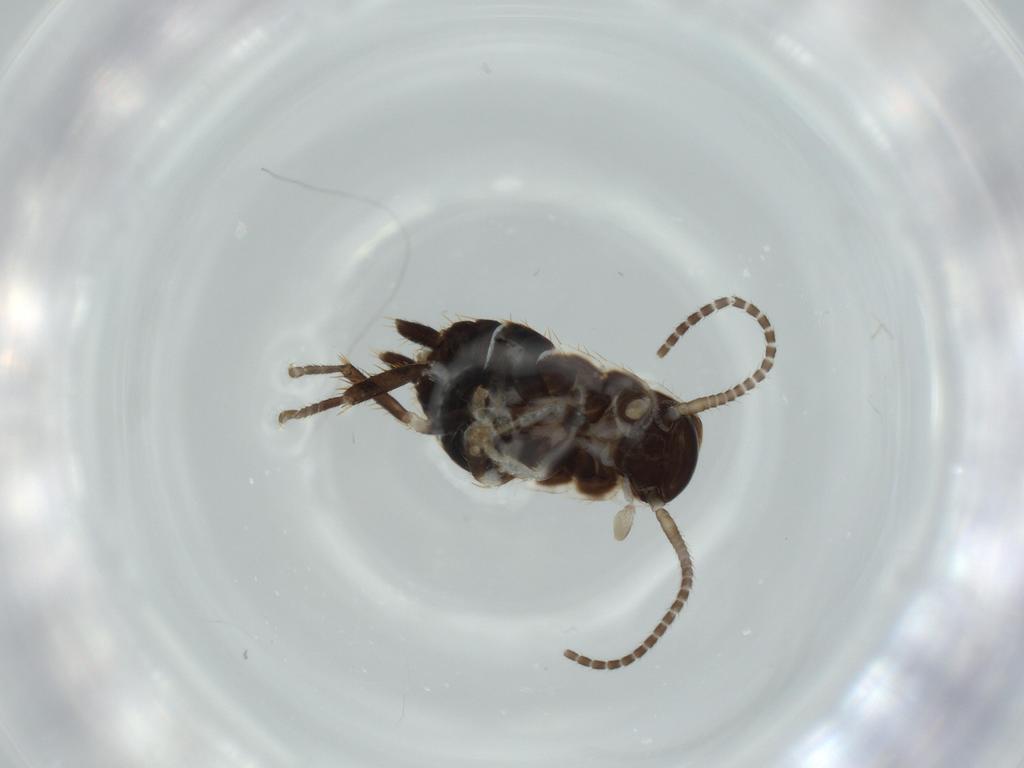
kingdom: Animalia
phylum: Arthropoda
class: Insecta
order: Blattodea
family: Ectobiidae
